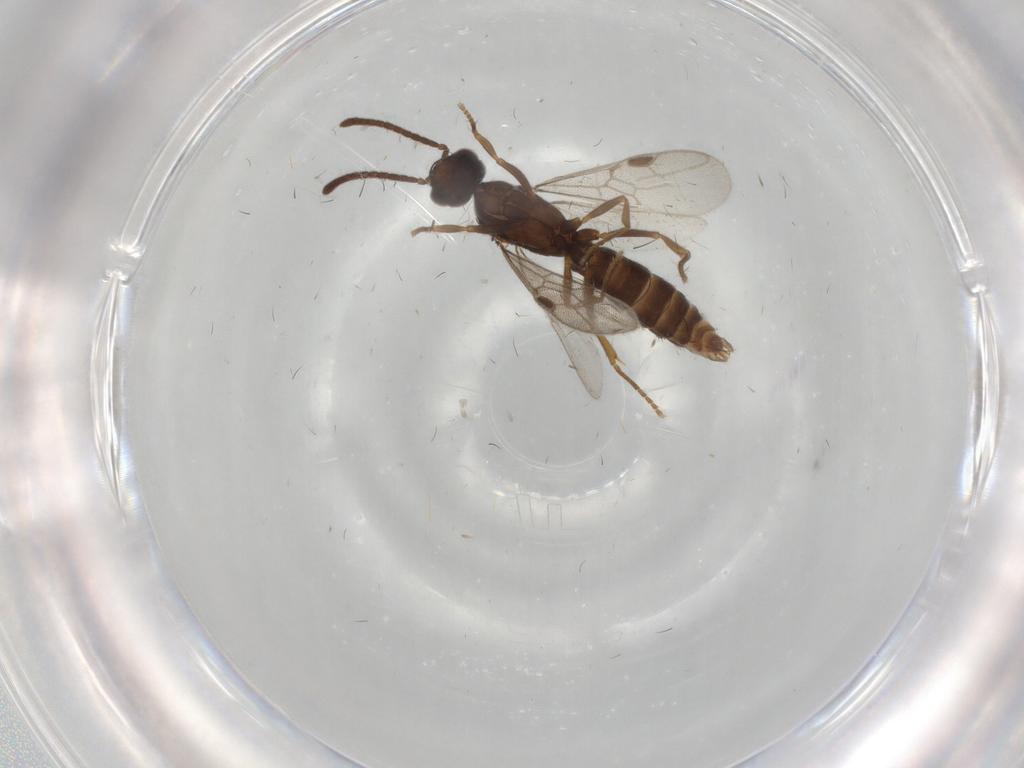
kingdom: Animalia
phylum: Arthropoda
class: Insecta
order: Hymenoptera
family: Formicidae
